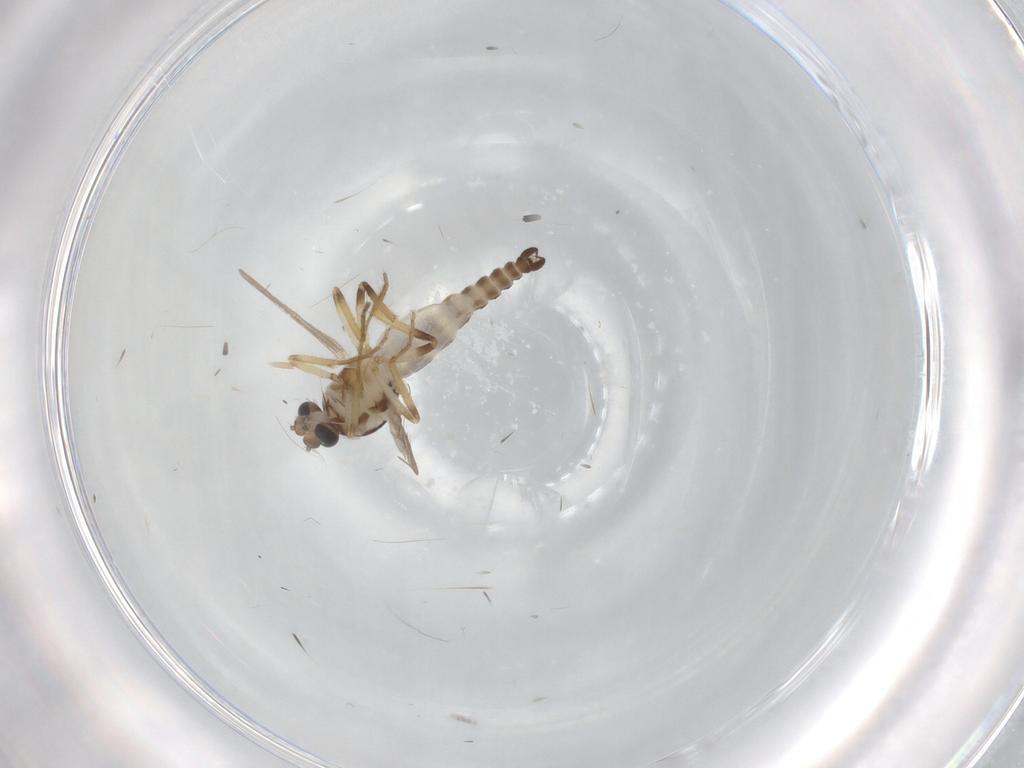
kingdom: Animalia
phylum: Arthropoda
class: Insecta
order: Diptera
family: Ceratopogonidae
